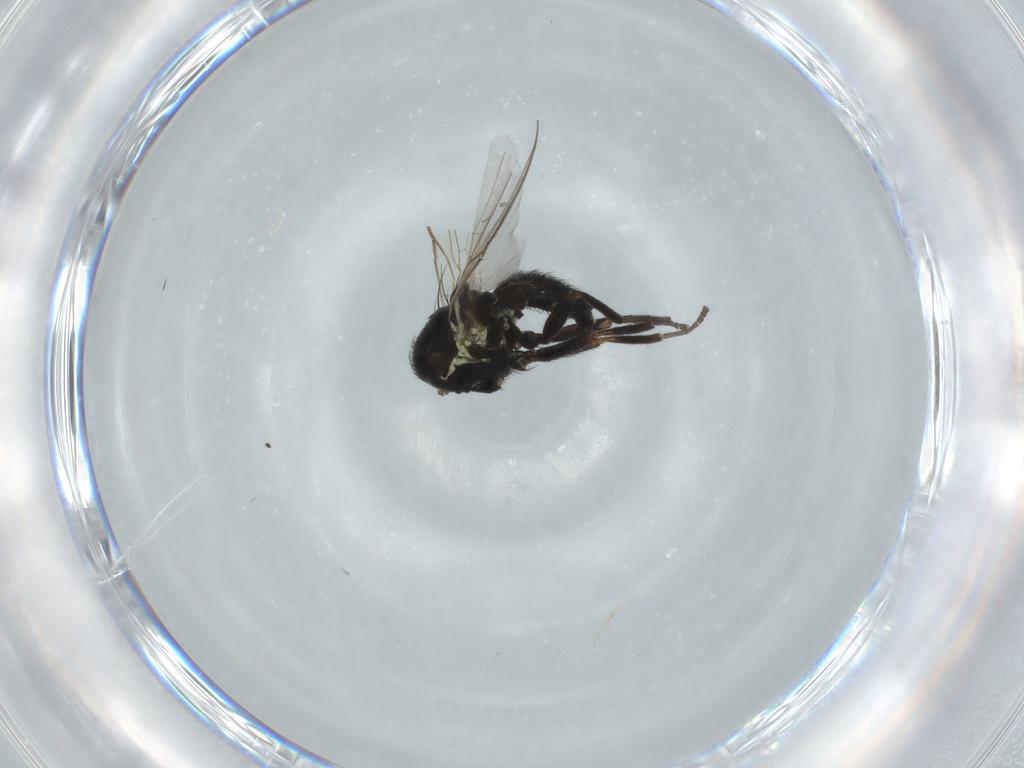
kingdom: Animalia
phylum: Arthropoda
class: Insecta
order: Diptera
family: Agromyzidae
